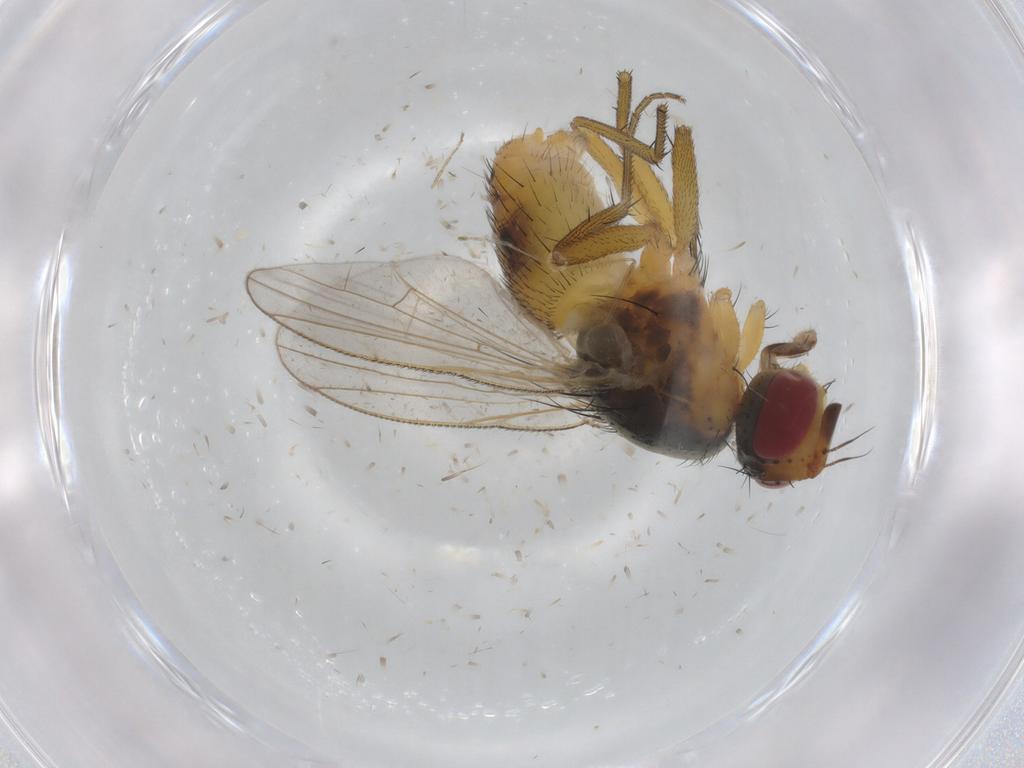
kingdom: Animalia
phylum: Arthropoda
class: Insecta
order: Diptera
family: Muscidae
